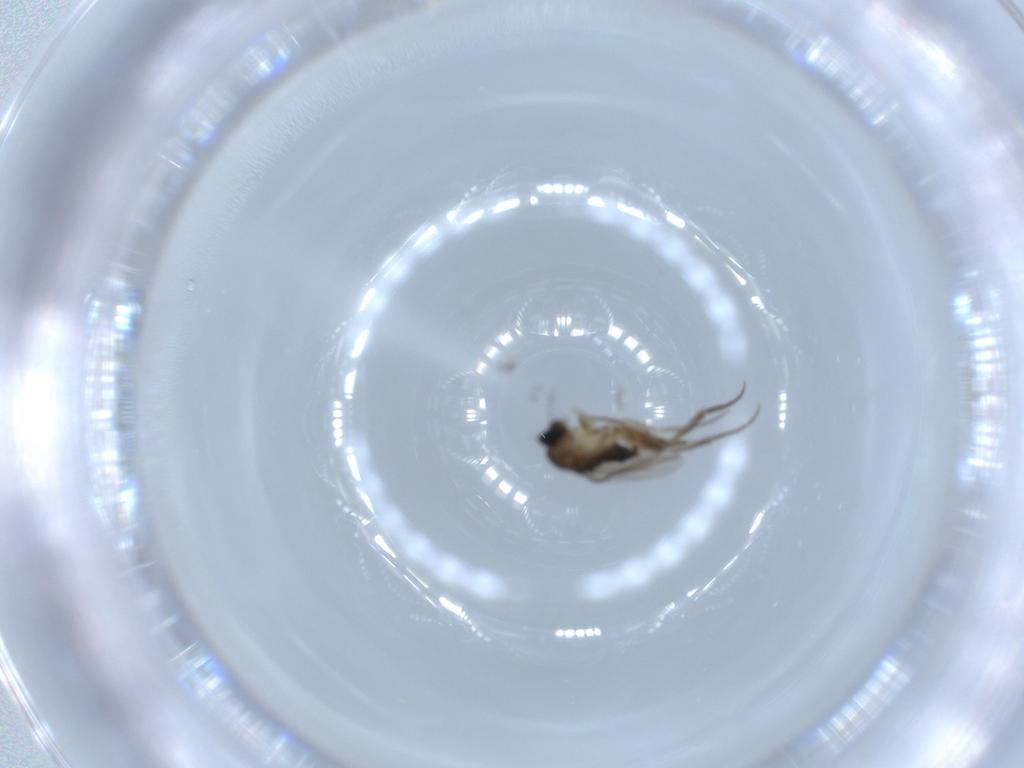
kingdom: Animalia
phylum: Arthropoda
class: Insecta
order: Diptera
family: Phoridae
